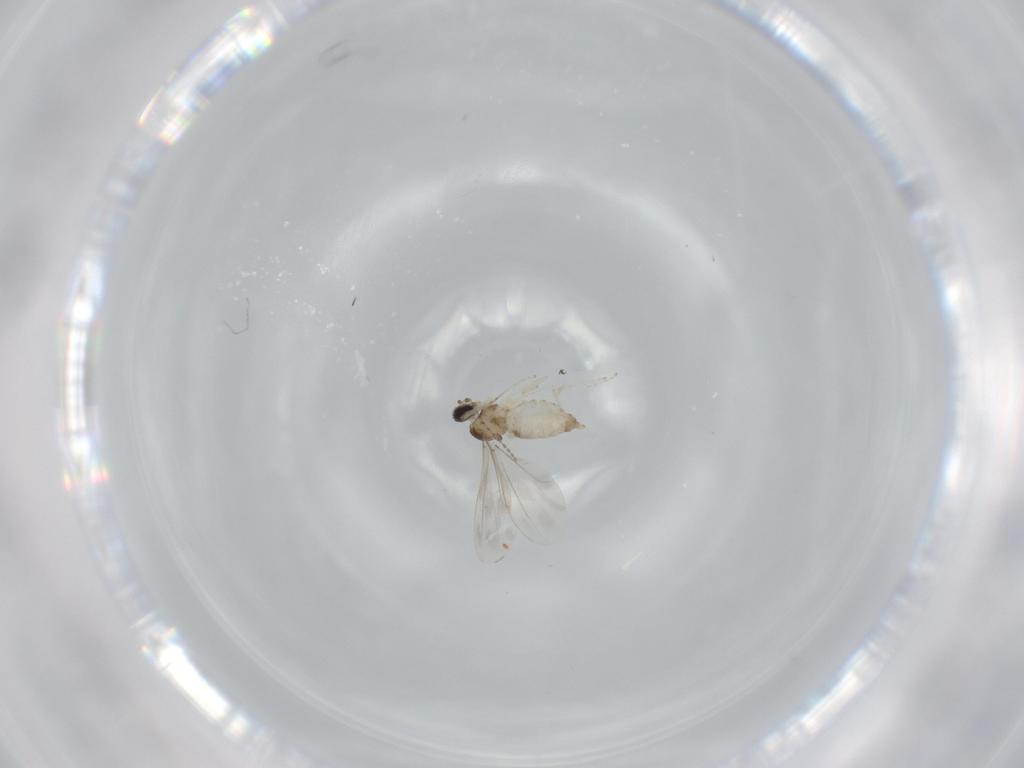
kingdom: Animalia
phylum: Arthropoda
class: Insecta
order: Diptera
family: Cecidomyiidae
